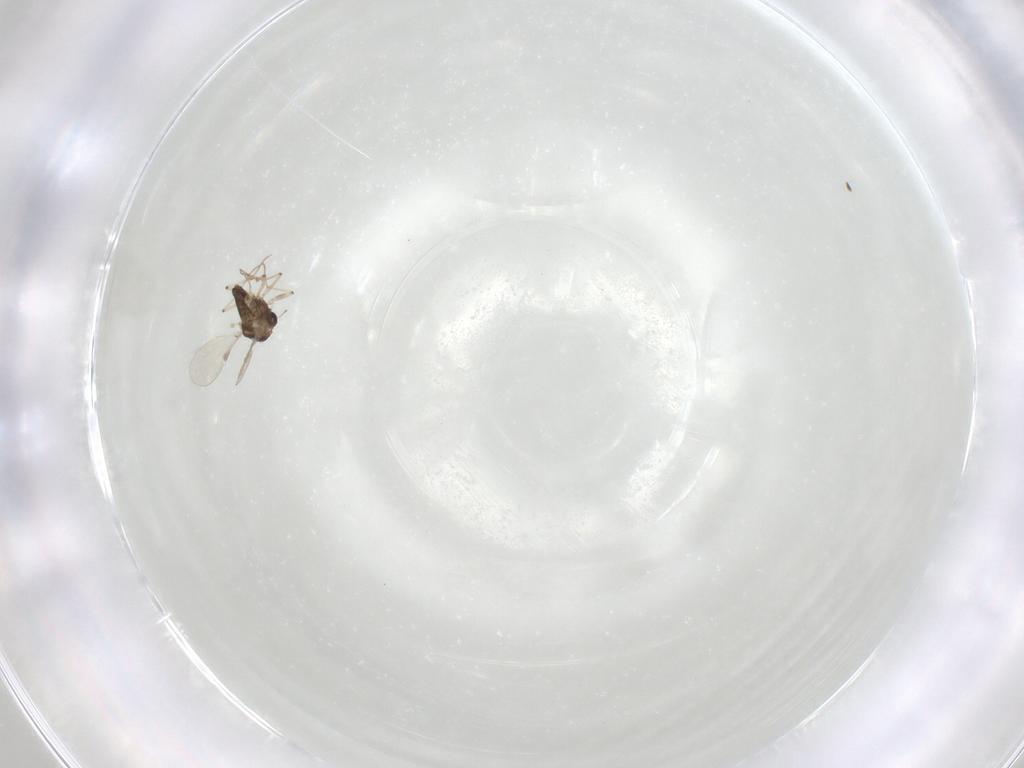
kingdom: Animalia
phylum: Arthropoda
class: Insecta
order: Diptera
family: Chironomidae
